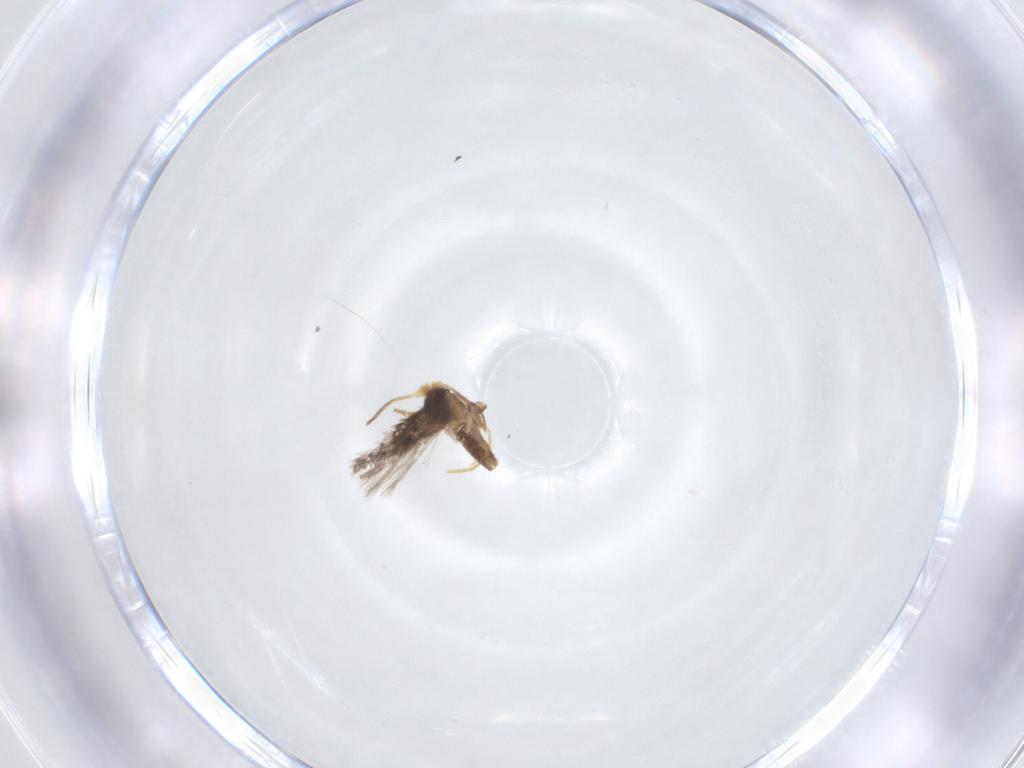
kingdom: Animalia
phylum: Arthropoda
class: Insecta
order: Lepidoptera
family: Nepticulidae
